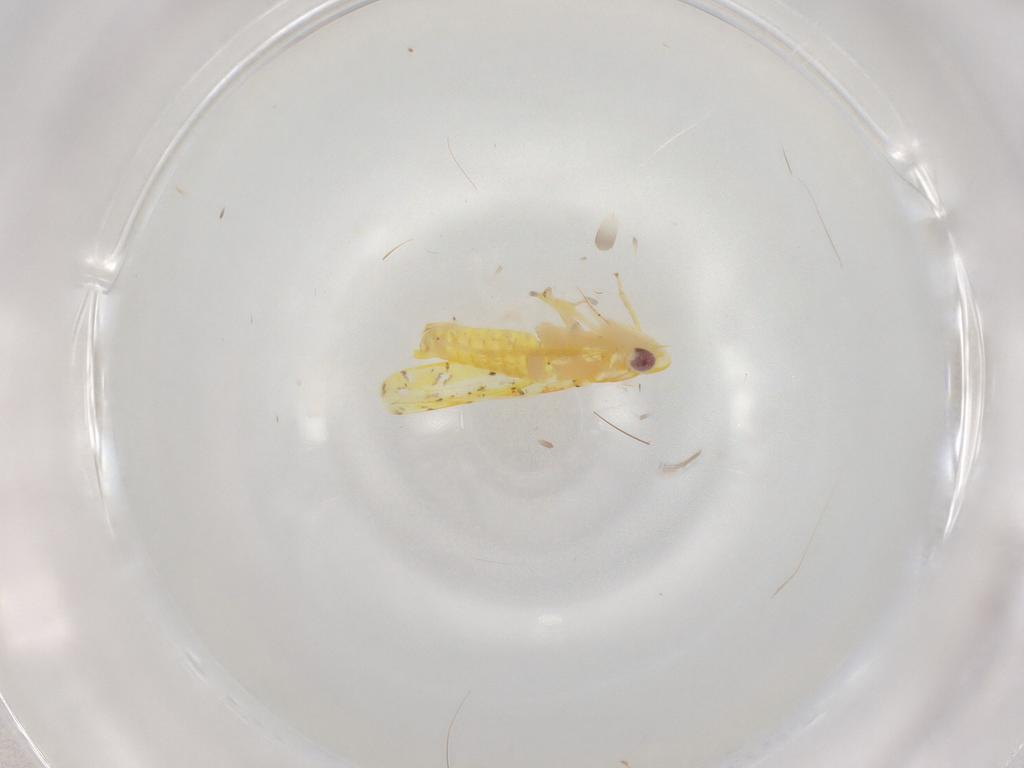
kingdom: Animalia
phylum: Arthropoda
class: Insecta
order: Hemiptera
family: Cicadellidae
